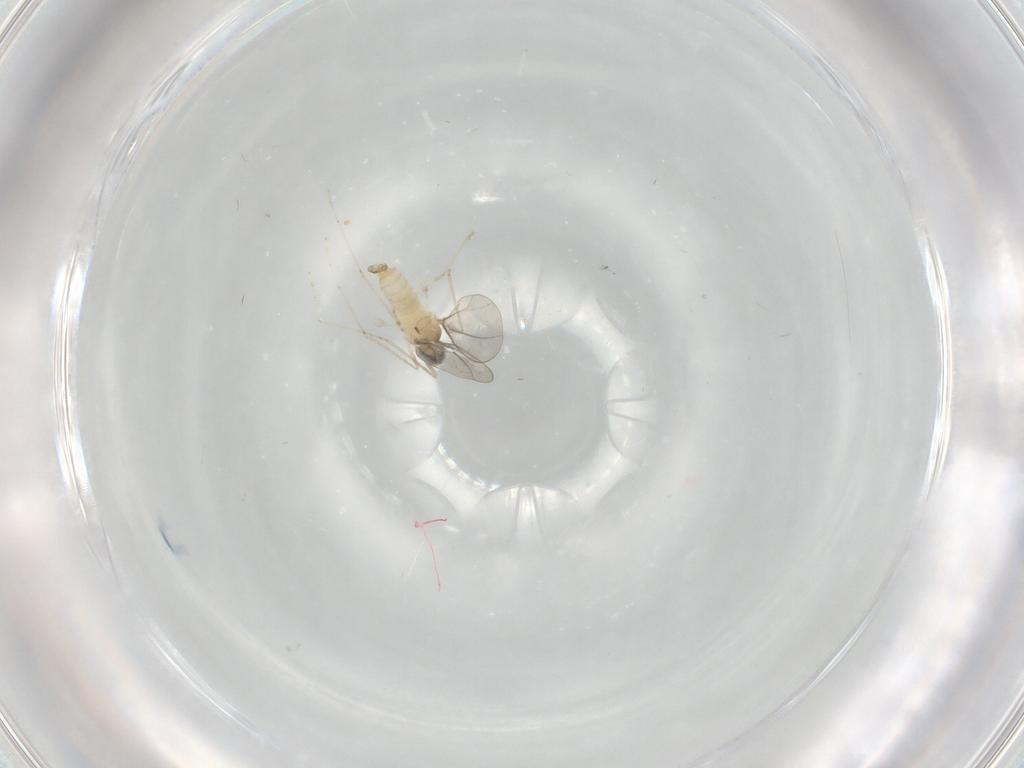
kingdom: Animalia
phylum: Arthropoda
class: Insecta
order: Diptera
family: Cecidomyiidae
